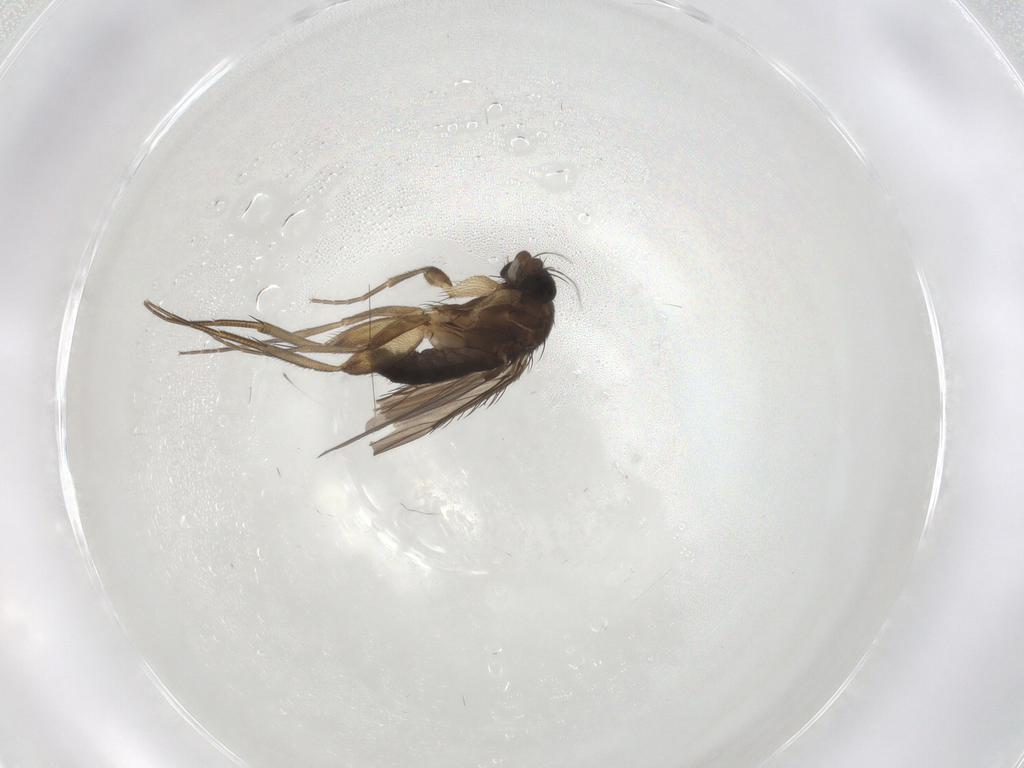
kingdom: Animalia
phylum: Arthropoda
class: Insecta
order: Diptera
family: Phoridae
